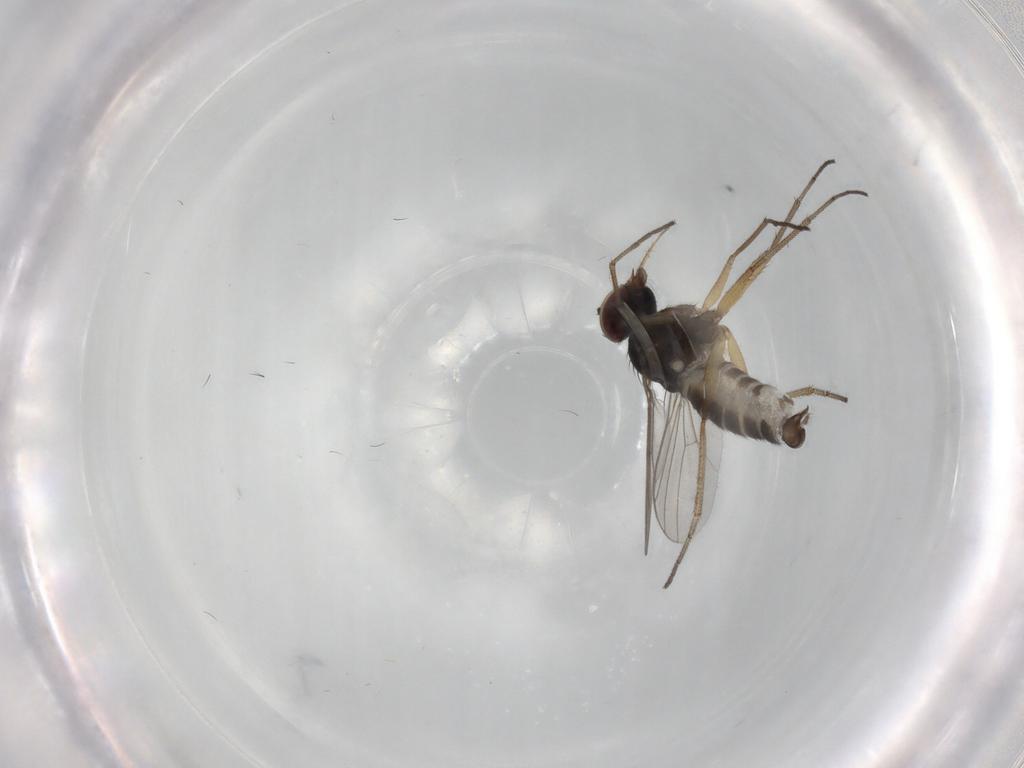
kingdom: Animalia
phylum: Arthropoda
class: Insecta
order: Diptera
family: Dolichopodidae
